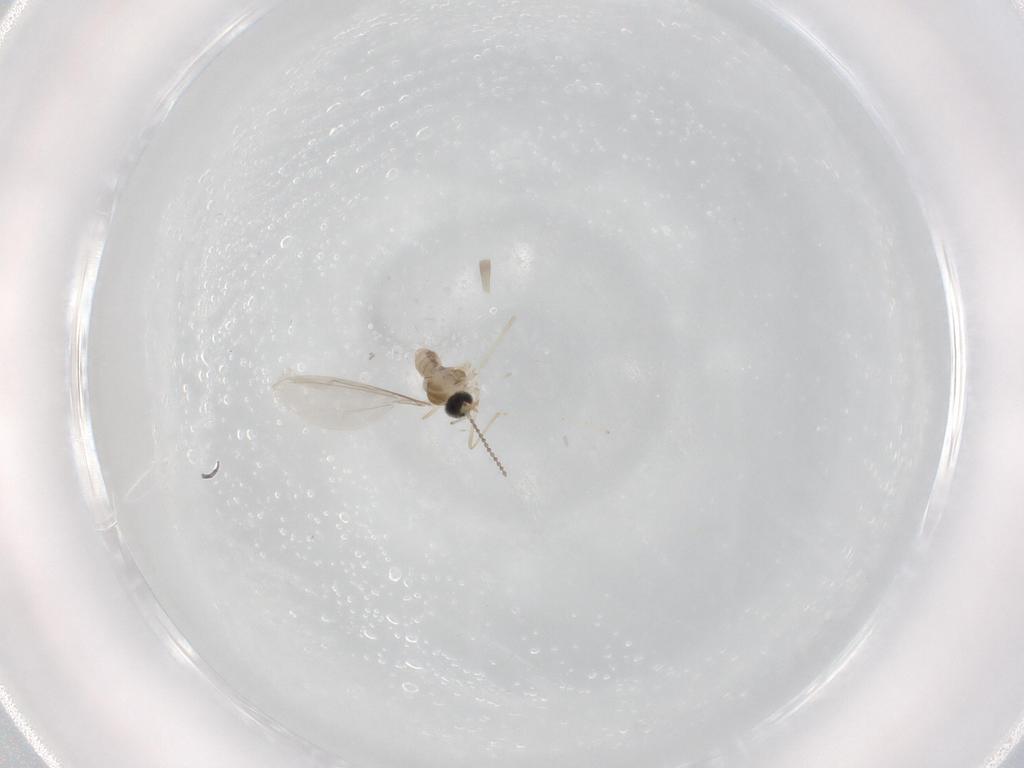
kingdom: Animalia
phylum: Arthropoda
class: Insecta
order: Diptera
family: Cecidomyiidae
